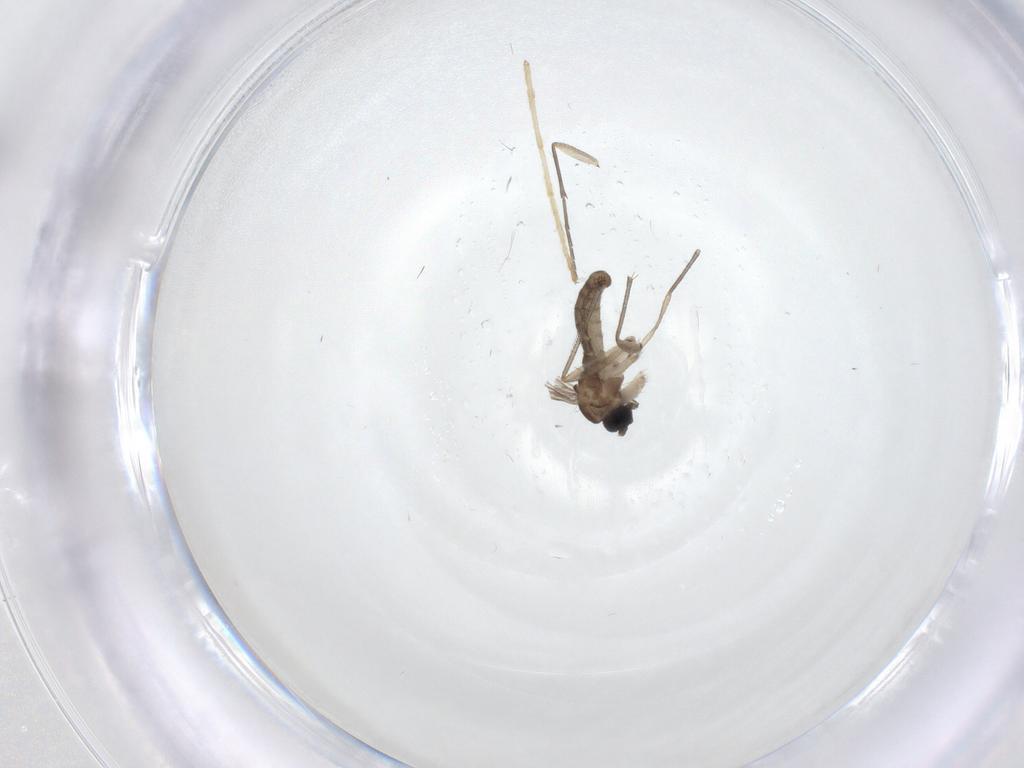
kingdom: Animalia
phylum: Arthropoda
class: Insecta
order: Diptera
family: Sciaridae
